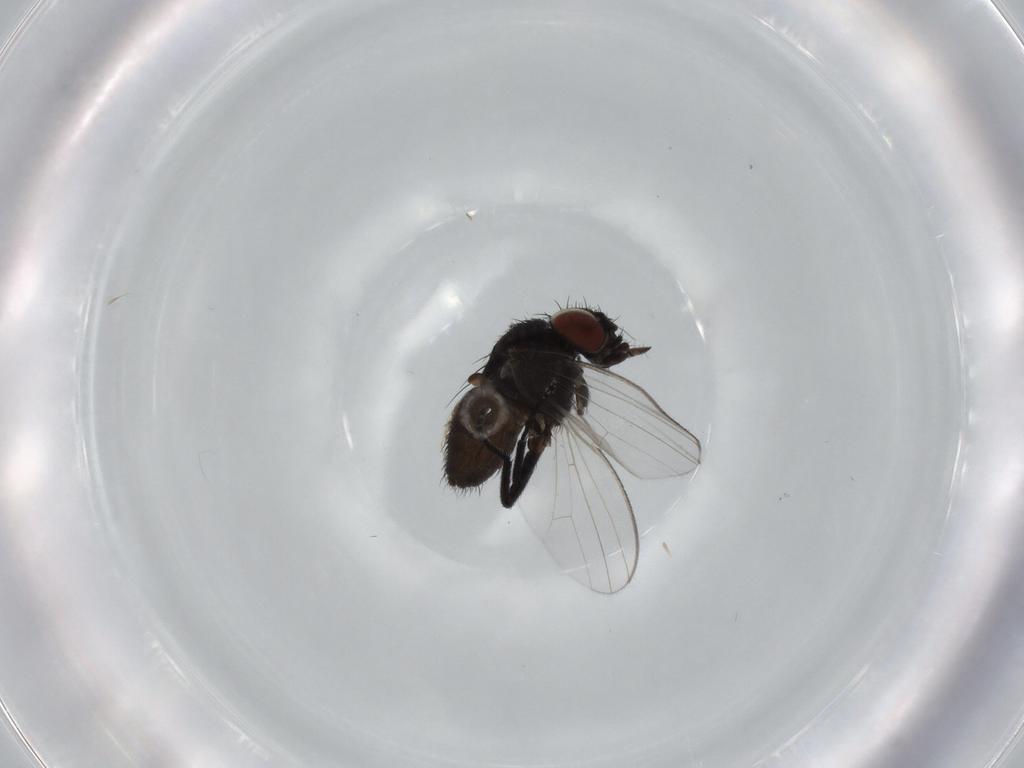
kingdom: Animalia
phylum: Arthropoda
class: Insecta
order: Diptera
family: Milichiidae
